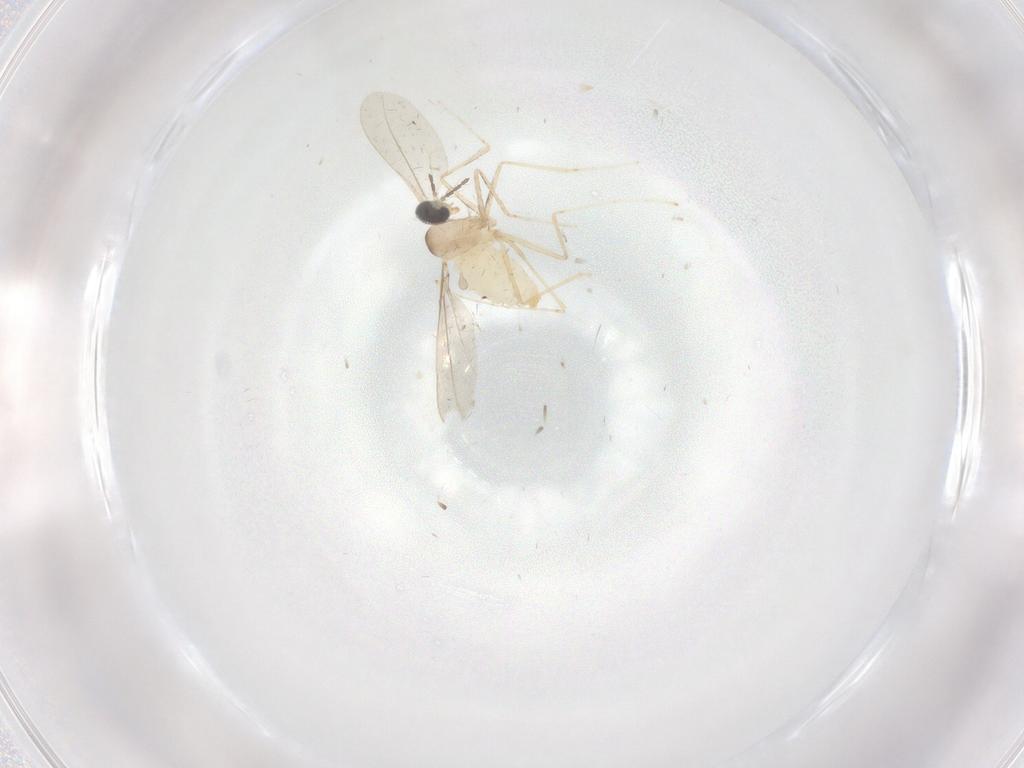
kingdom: Animalia
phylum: Arthropoda
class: Insecta
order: Diptera
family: Cecidomyiidae
